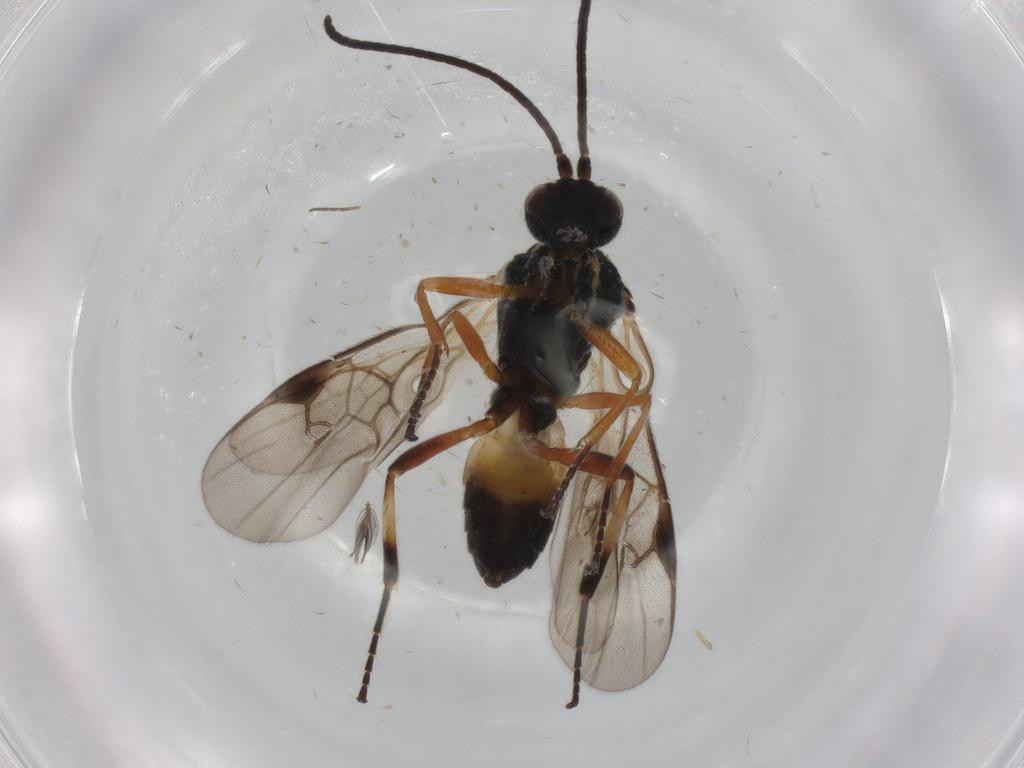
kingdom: Animalia
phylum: Arthropoda
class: Insecta
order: Hymenoptera
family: Braconidae
